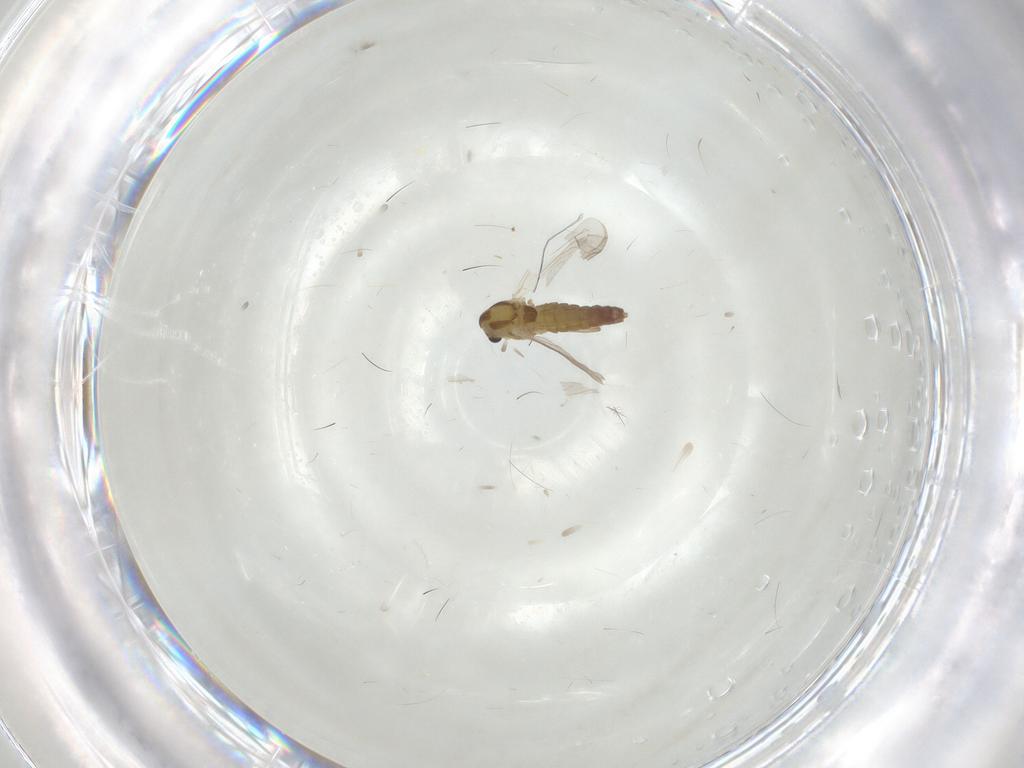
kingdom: Animalia
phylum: Arthropoda
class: Insecta
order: Diptera
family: Chironomidae
